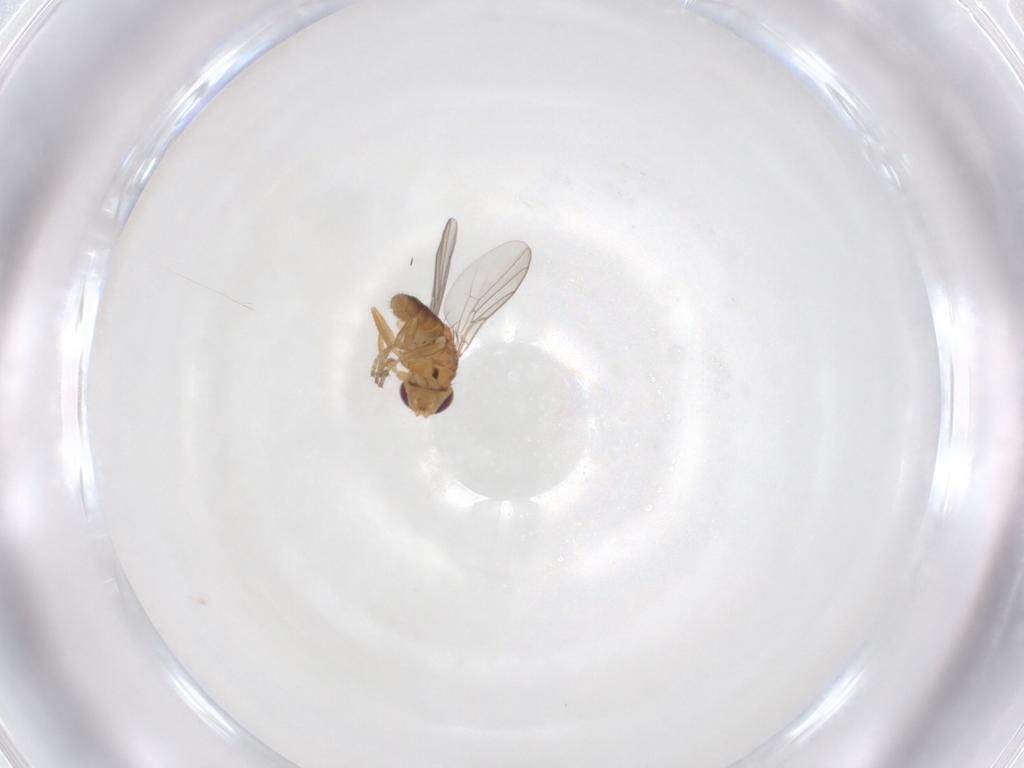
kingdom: Animalia
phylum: Arthropoda
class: Insecta
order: Diptera
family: Chloropidae
